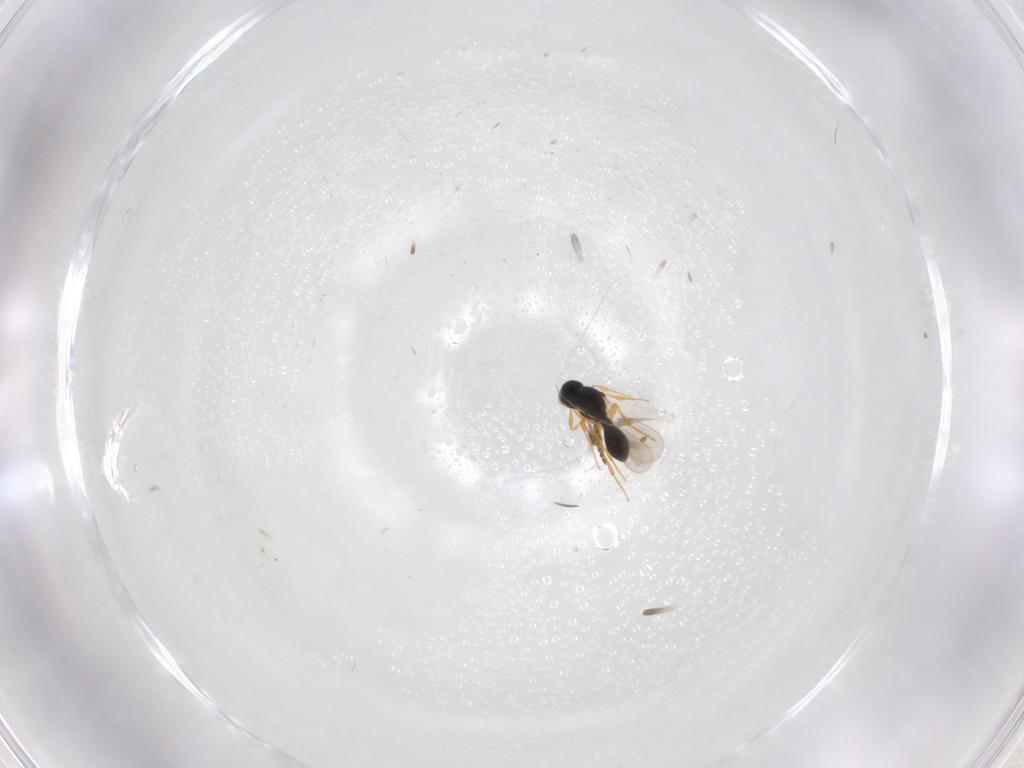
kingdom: Animalia
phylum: Arthropoda
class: Insecta
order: Hymenoptera
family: Platygastridae
